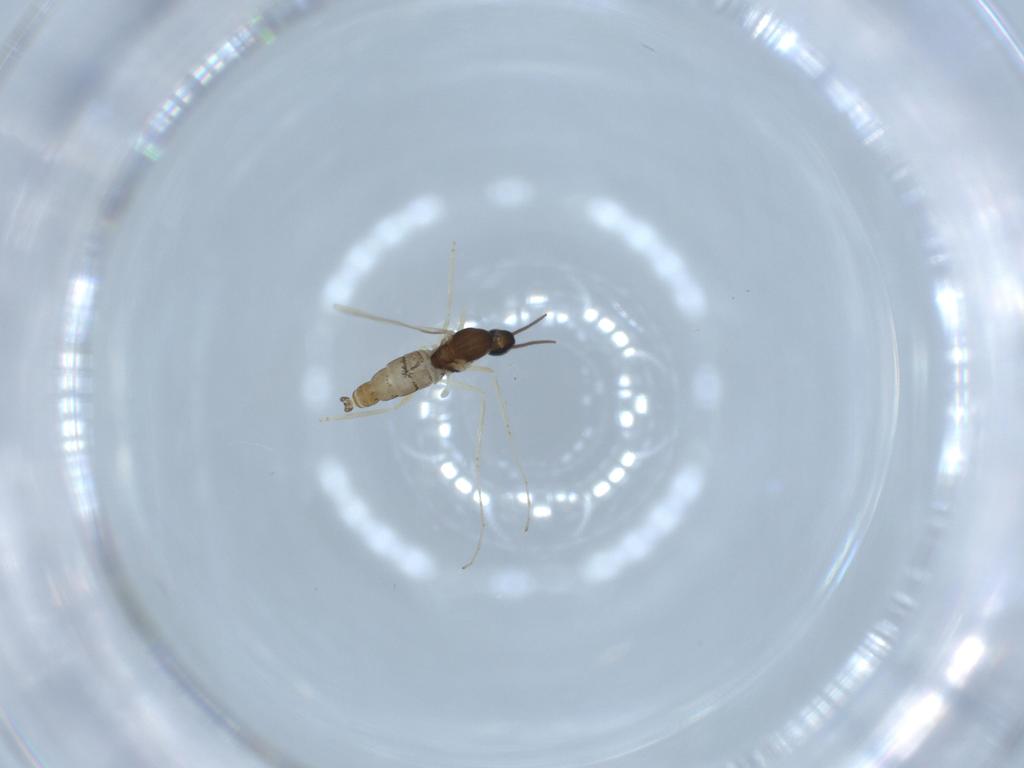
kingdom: Animalia
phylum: Arthropoda
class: Insecta
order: Diptera
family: Cecidomyiidae
